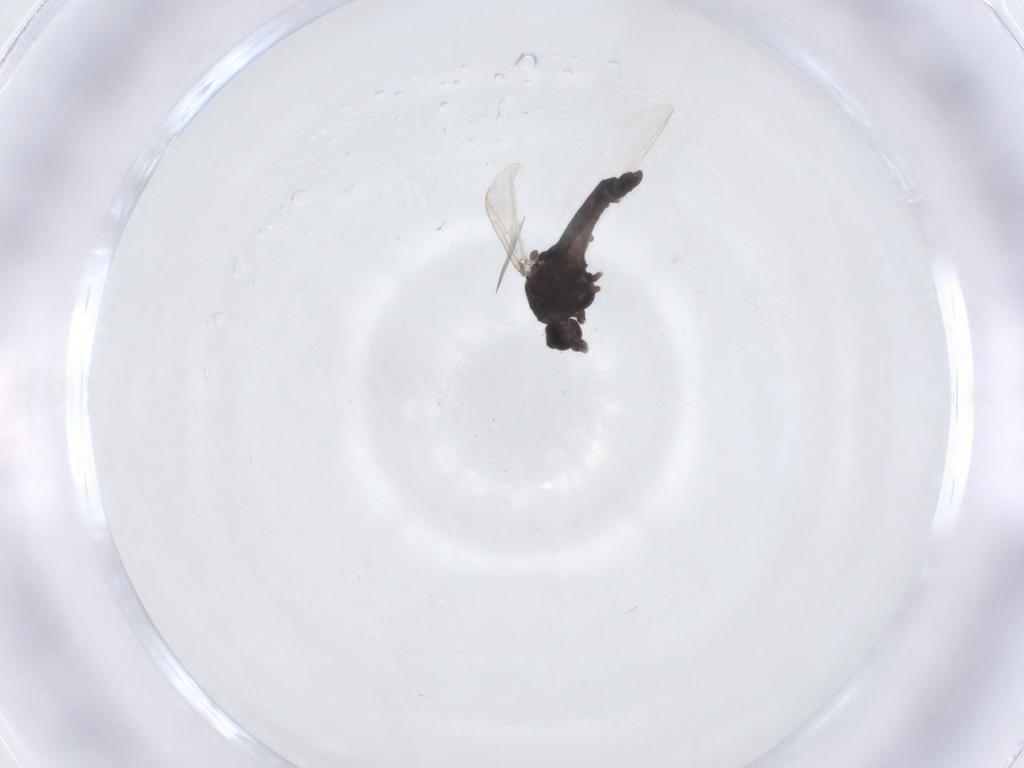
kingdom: Animalia
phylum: Arthropoda
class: Insecta
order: Diptera
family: Chironomidae
